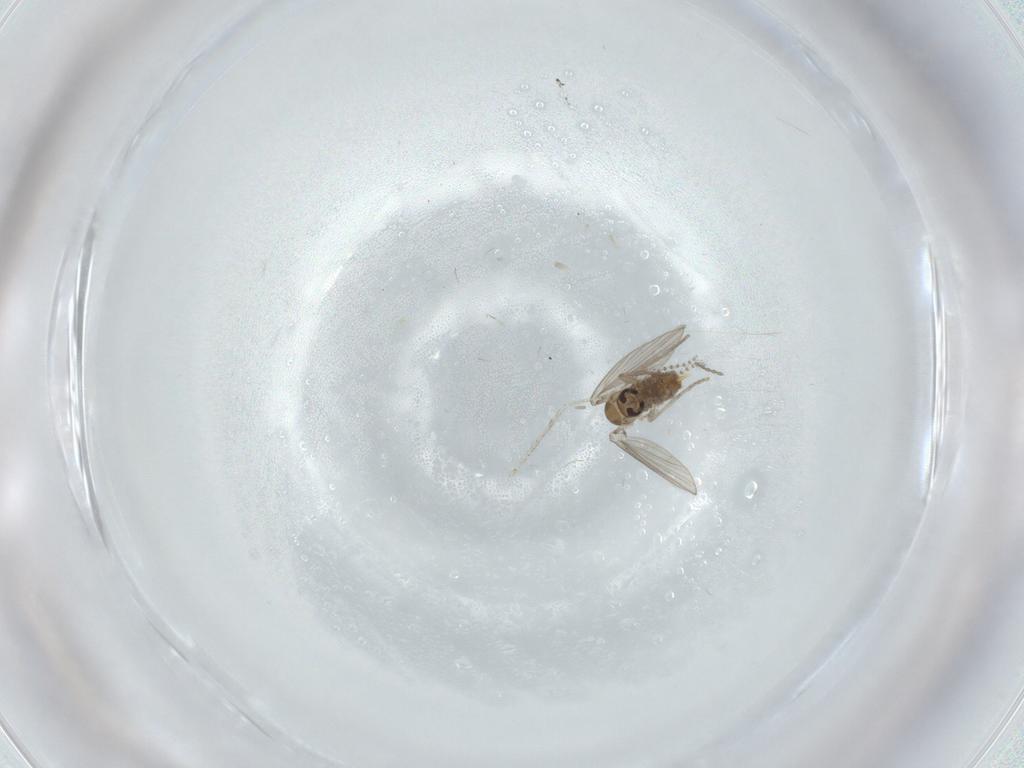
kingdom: Animalia
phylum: Arthropoda
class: Insecta
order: Diptera
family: Psychodidae
